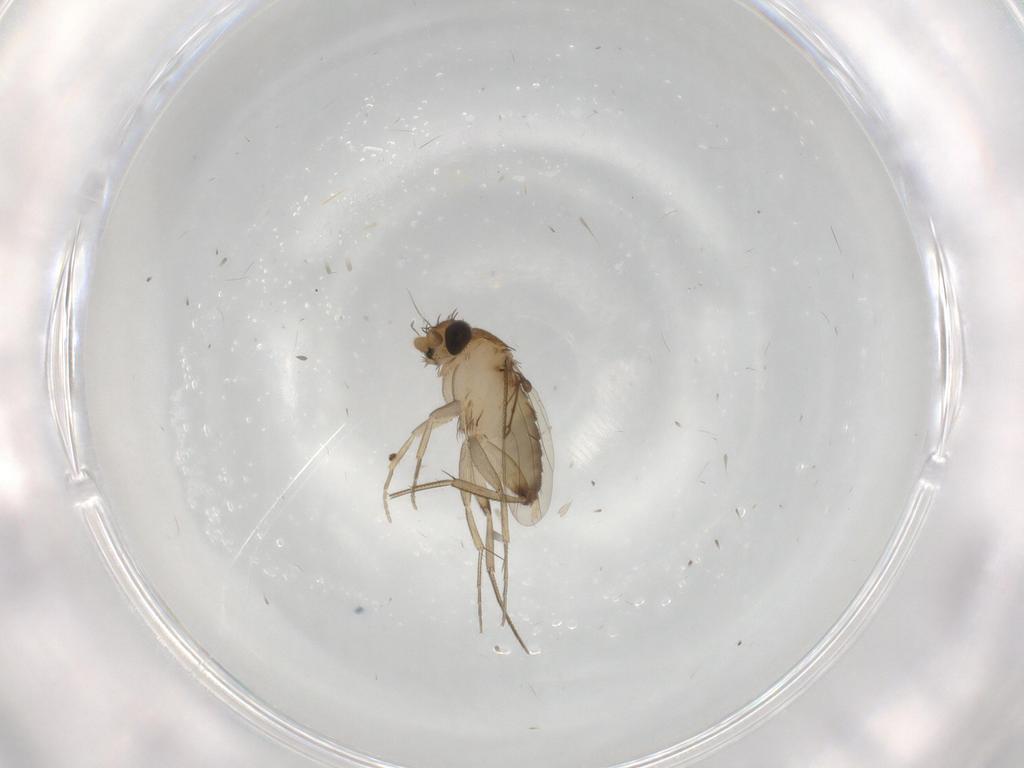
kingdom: Animalia
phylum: Arthropoda
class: Insecta
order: Diptera
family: Phoridae
